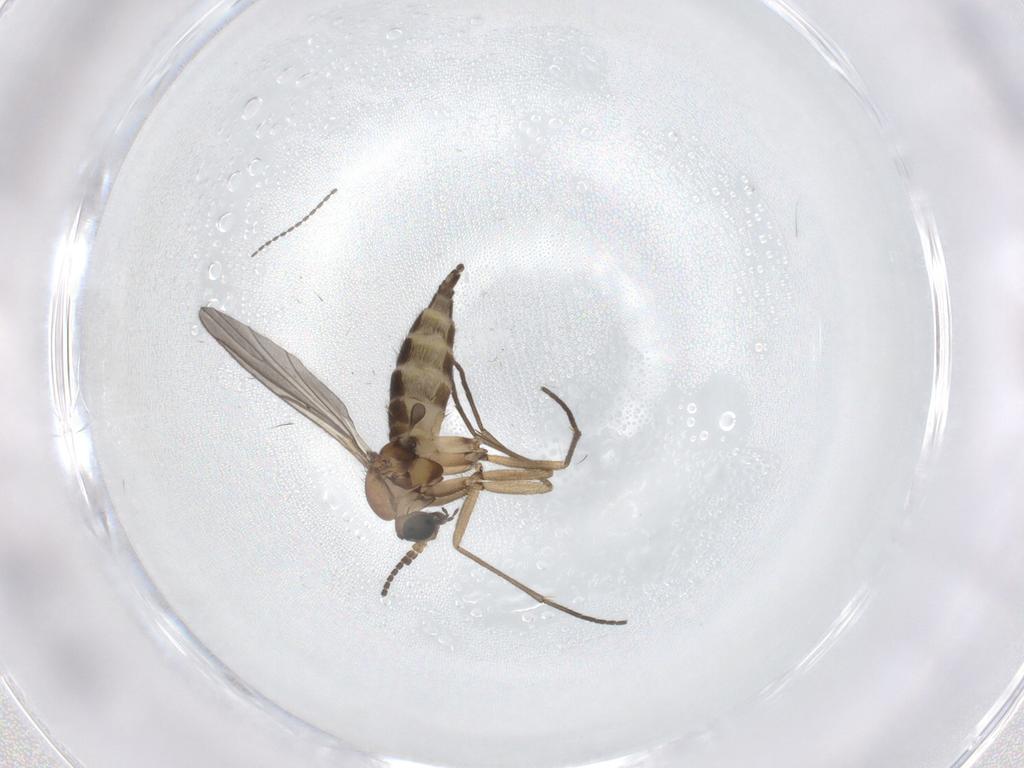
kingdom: Animalia
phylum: Arthropoda
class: Insecta
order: Diptera
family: Sciaridae
